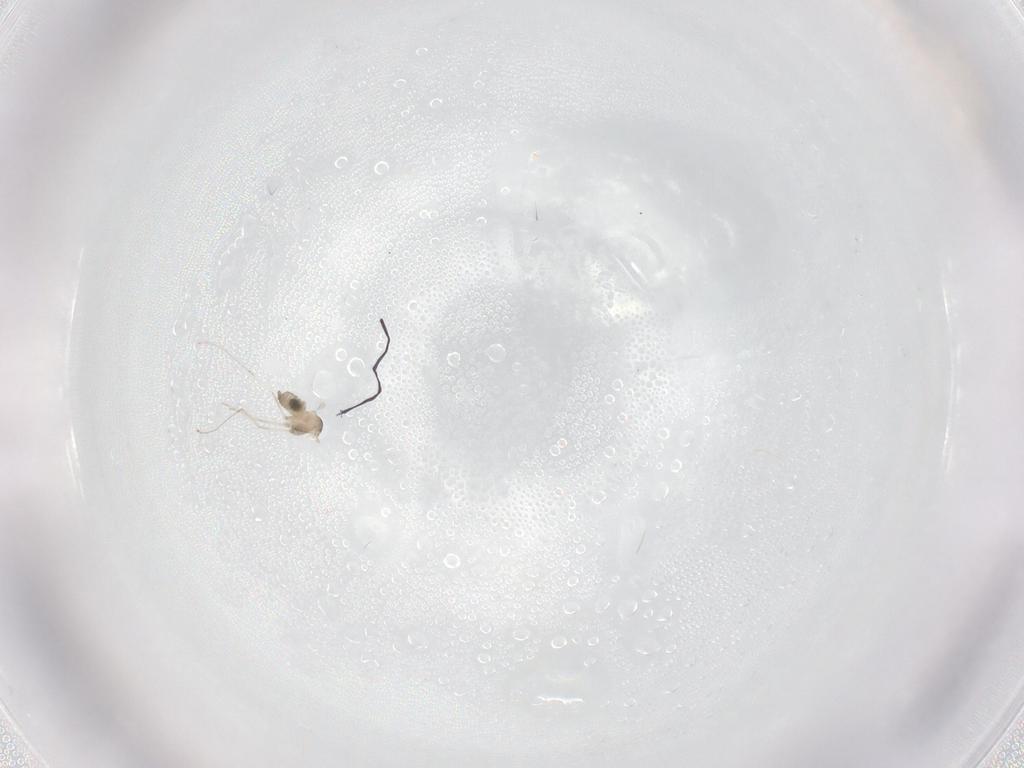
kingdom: Animalia
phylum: Arthropoda
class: Insecta
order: Diptera
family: Cecidomyiidae
